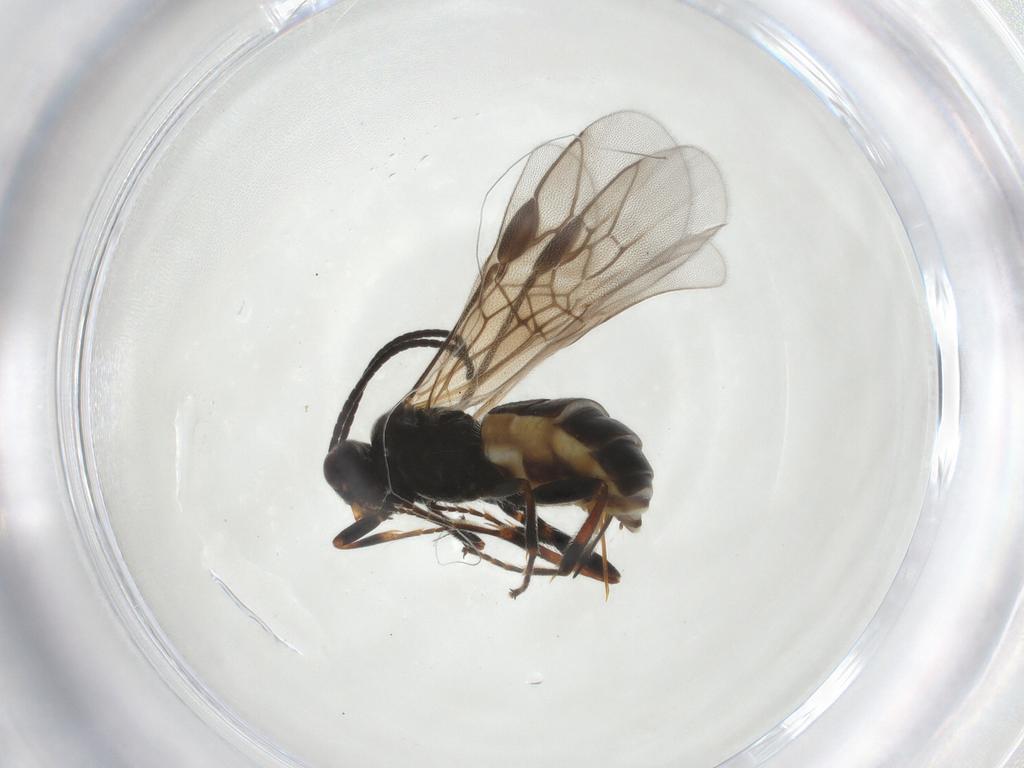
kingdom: Animalia
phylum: Arthropoda
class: Insecta
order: Hymenoptera
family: Braconidae
